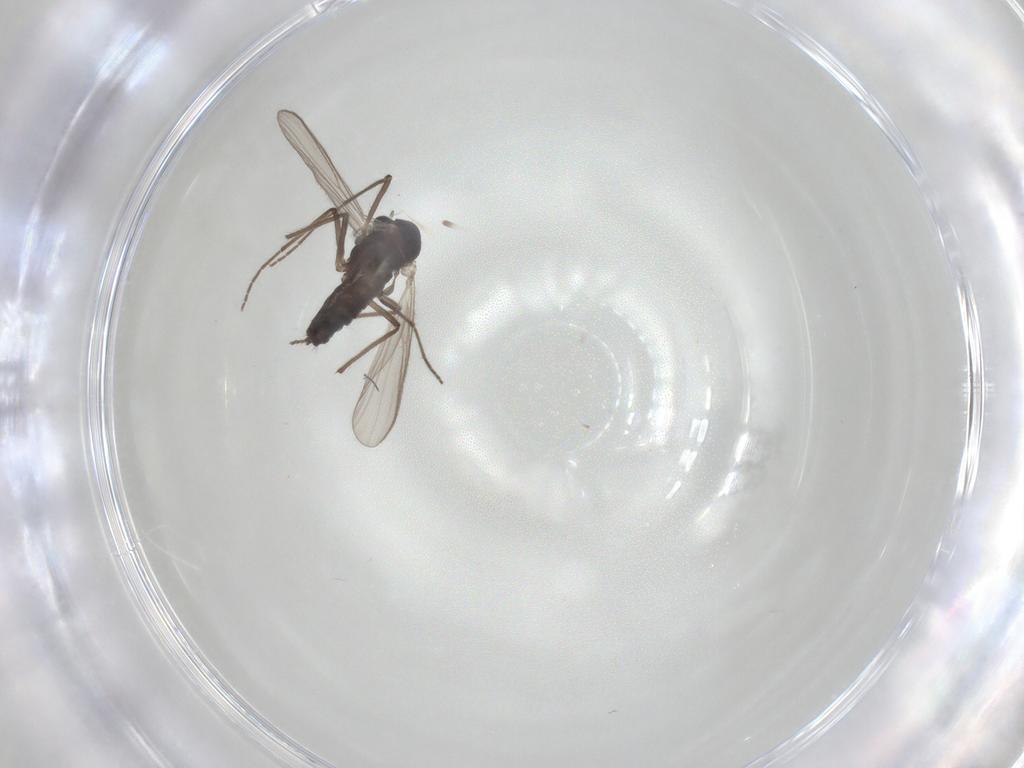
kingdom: Animalia
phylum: Arthropoda
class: Insecta
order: Diptera
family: Chironomidae
